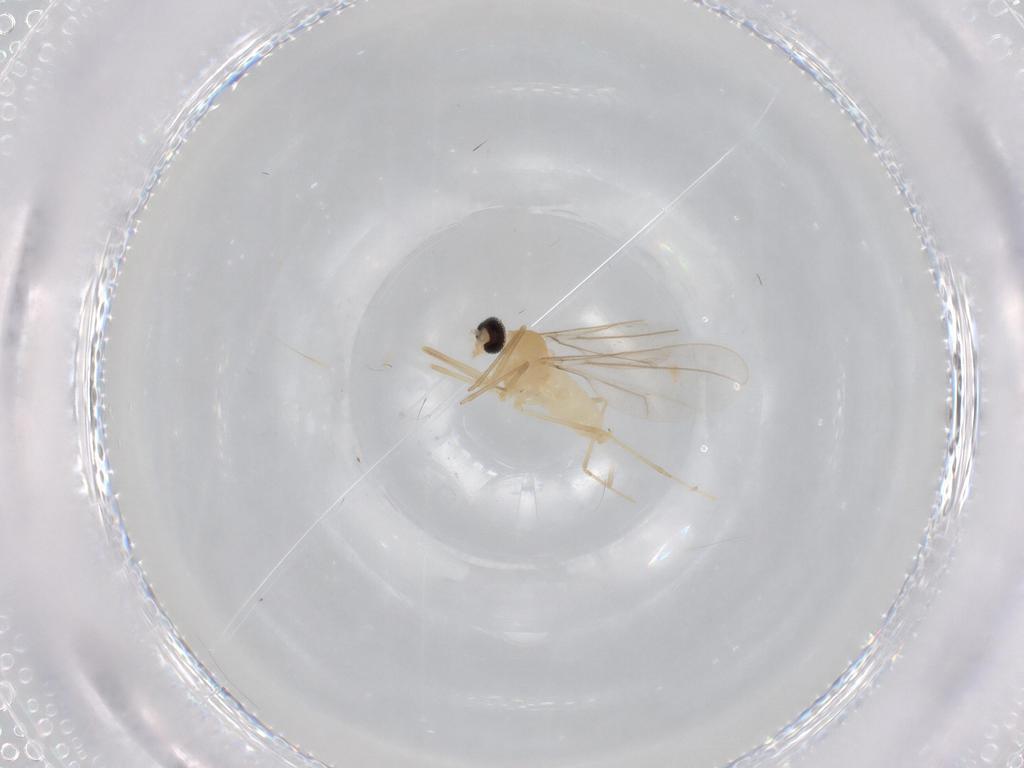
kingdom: Animalia
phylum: Arthropoda
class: Insecta
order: Diptera
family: Cecidomyiidae
